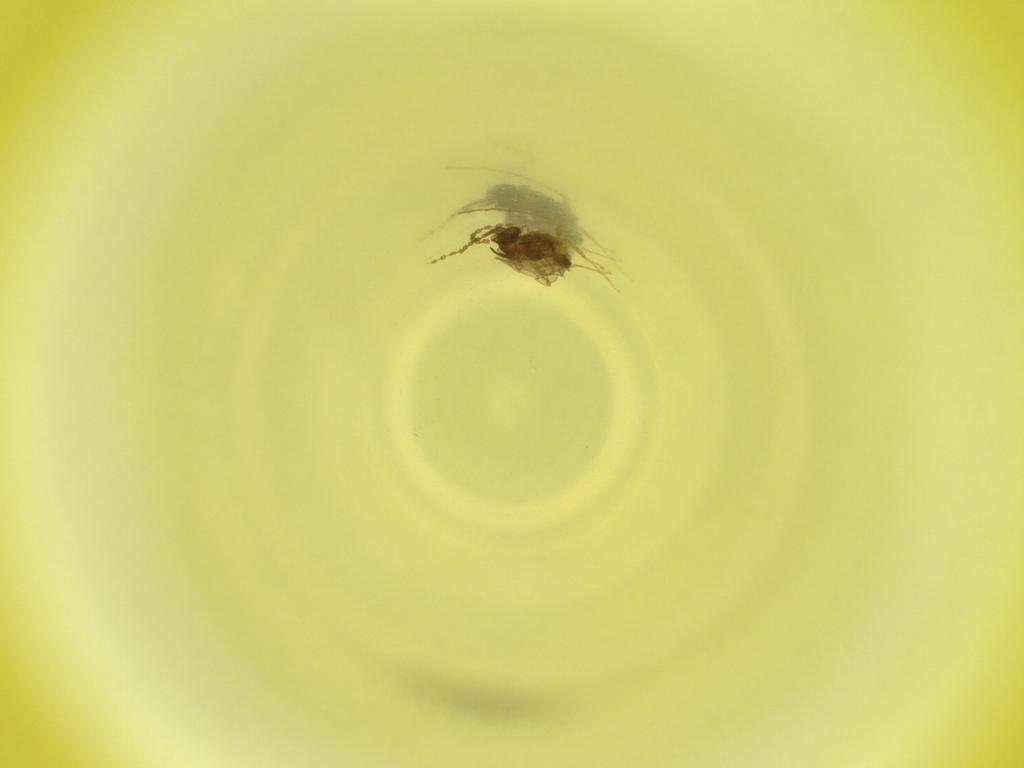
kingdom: Animalia
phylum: Arthropoda
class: Insecta
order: Diptera
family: Cecidomyiidae
